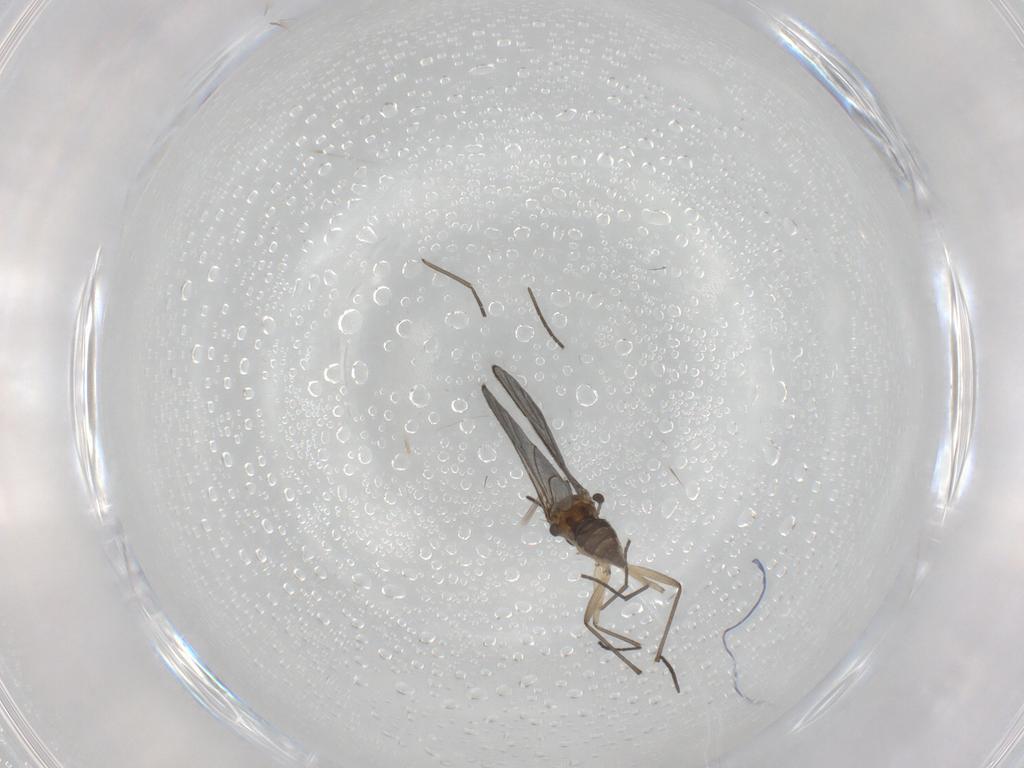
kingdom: Animalia
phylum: Arthropoda
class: Insecta
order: Diptera
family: Sciaridae
